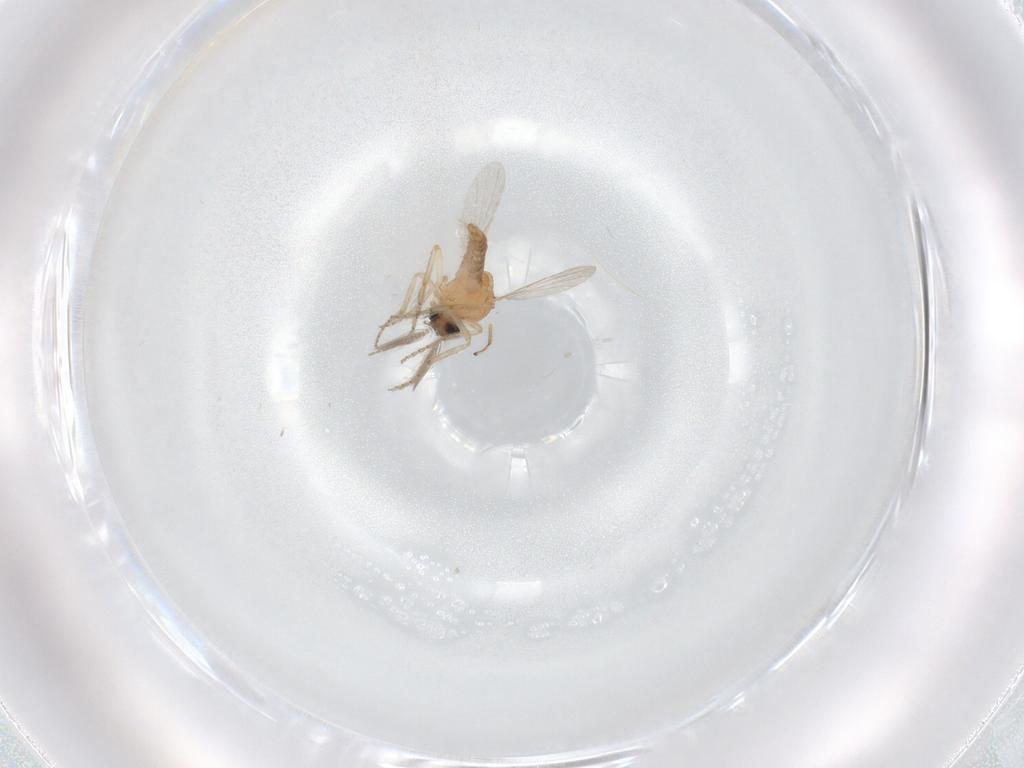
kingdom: Animalia
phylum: Arthropoda
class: Insecta
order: Diptera
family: Ceratopogonidae
